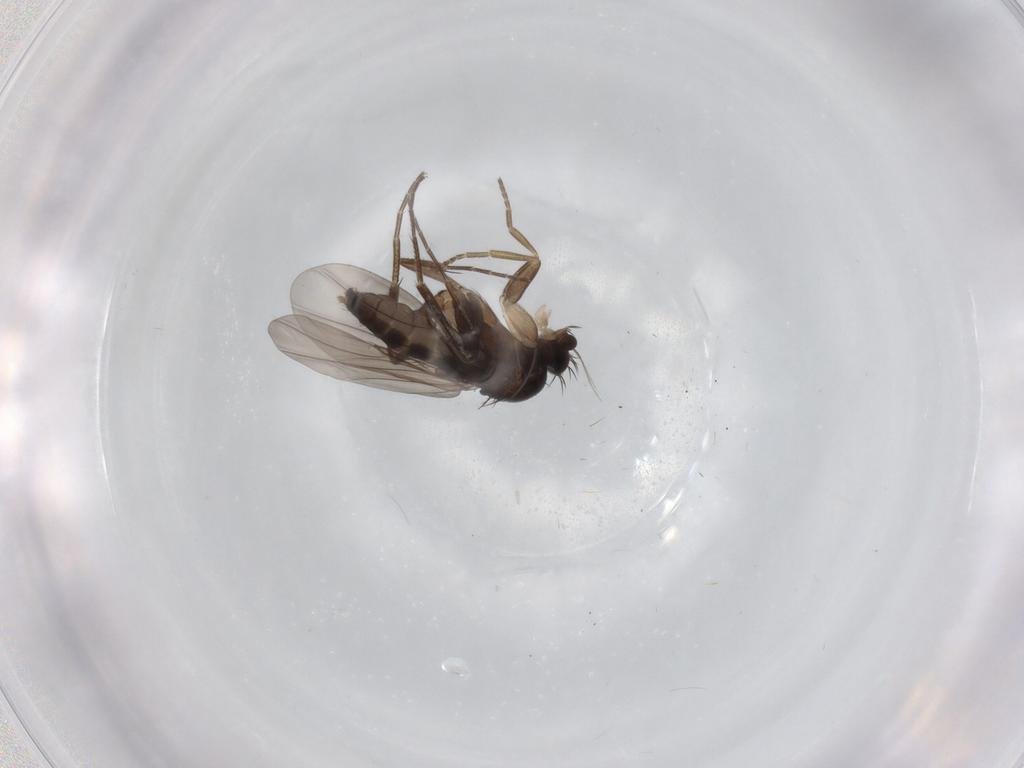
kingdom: Animalia
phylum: Arthropoda
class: Insecta
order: Diptera
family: Phoridae
